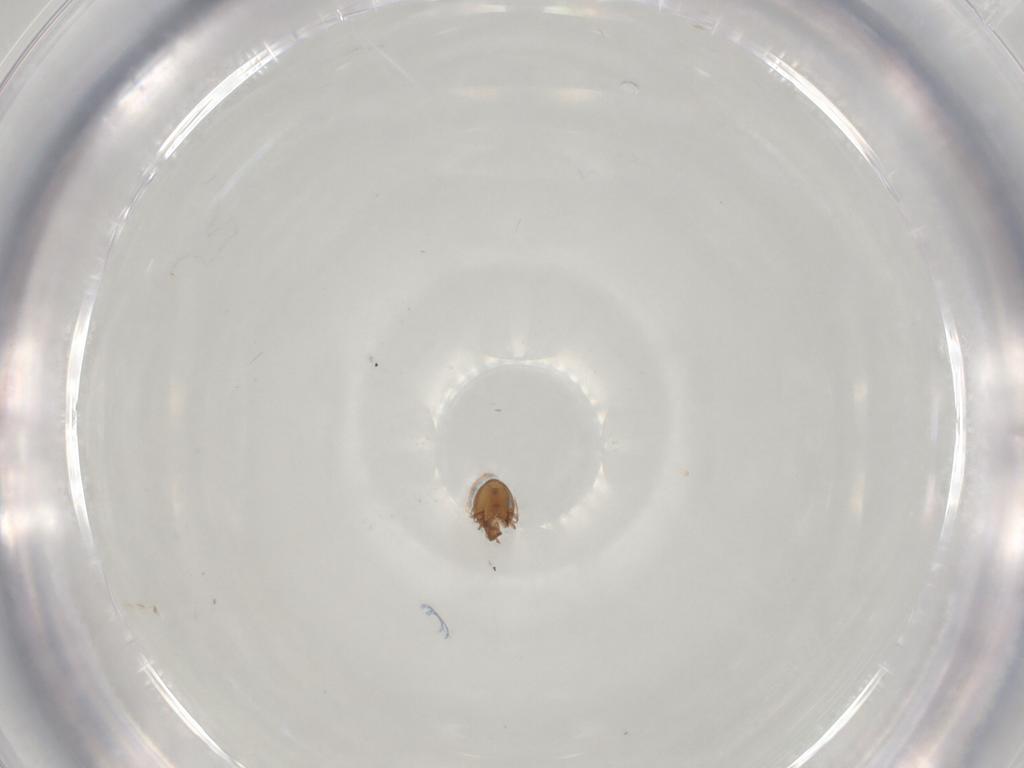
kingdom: Animalia
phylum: Arthropoda
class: Arachnida
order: Sarcoptiformes
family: Oribatulidae
